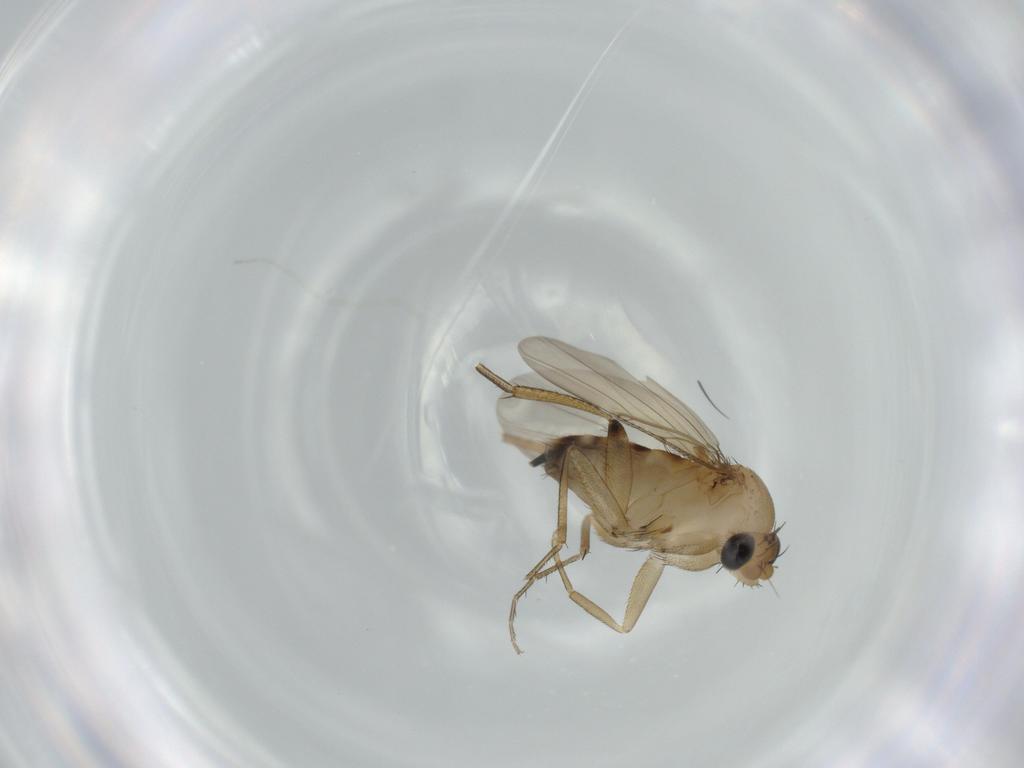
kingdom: Animalia
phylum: Arthropoda
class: Insecta
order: Diptera
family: Phoridae
